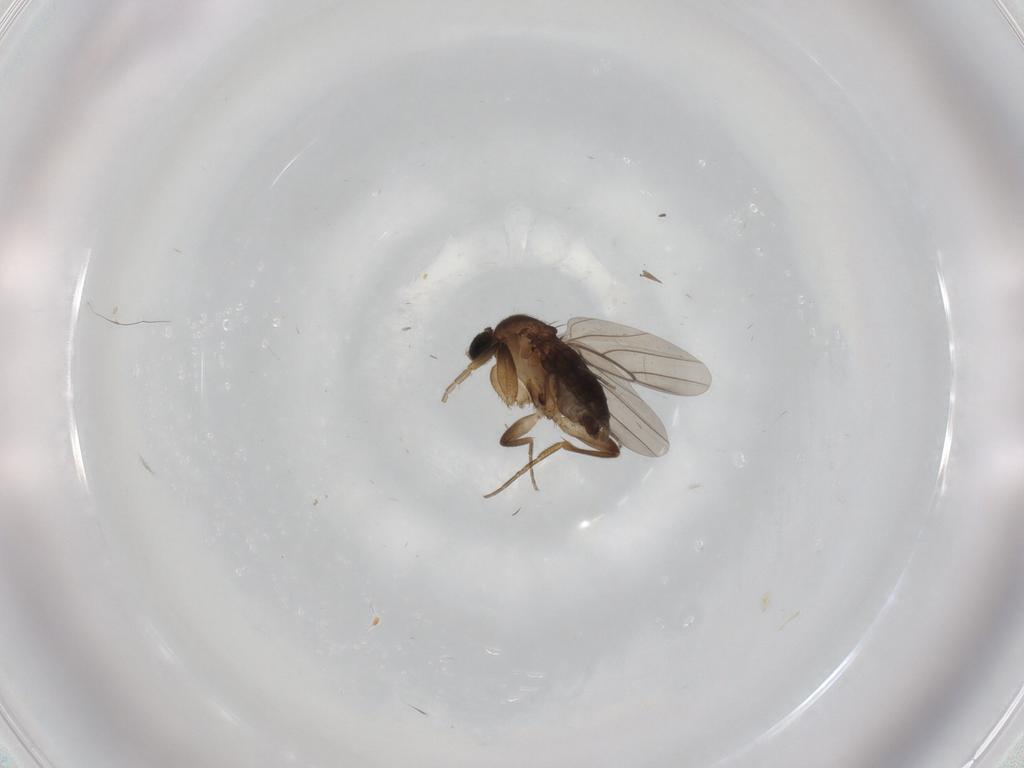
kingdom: Animalia
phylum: Arthropoda
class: Insecta
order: Diptera
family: Phoridae
